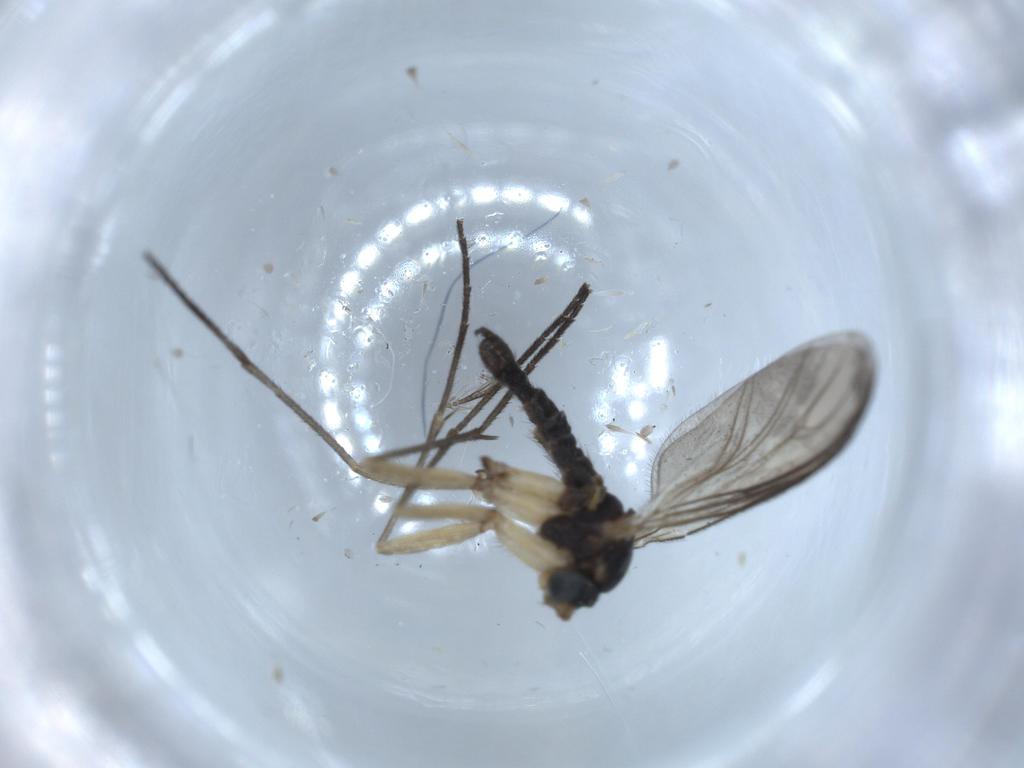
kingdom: Animalia
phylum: Arthropoda
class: Insecta
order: Diptera
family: Sciaridae
